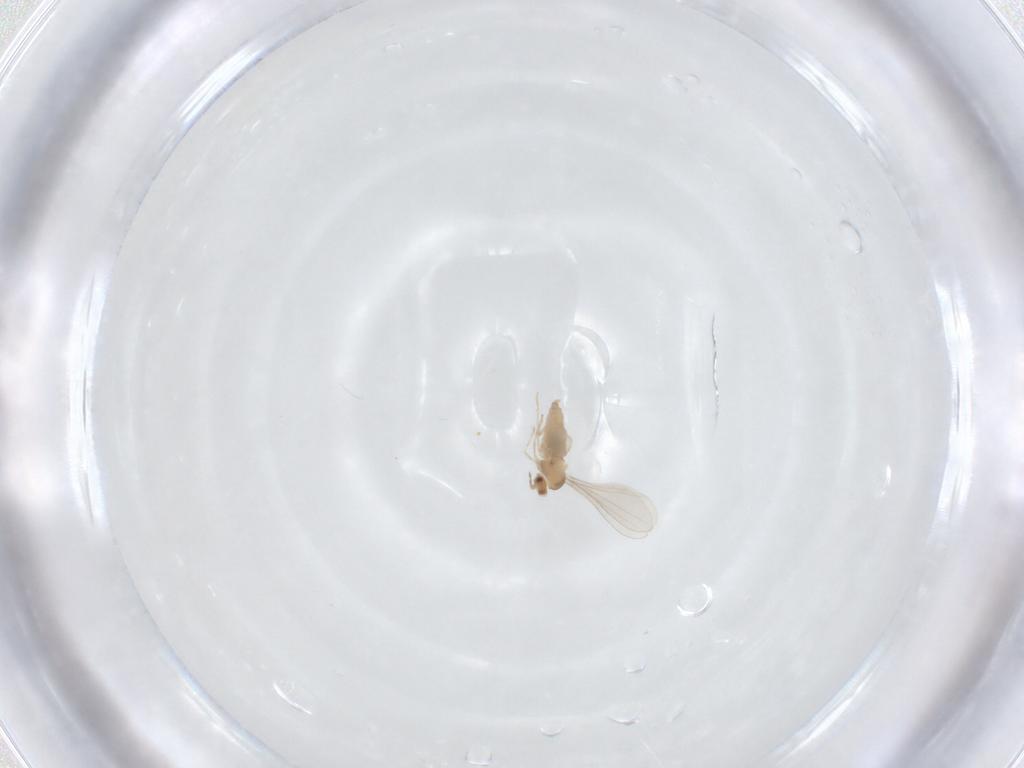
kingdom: Animalia
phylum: Arthropoda
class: Insecta
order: Diptera
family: Cecidomyiidae
